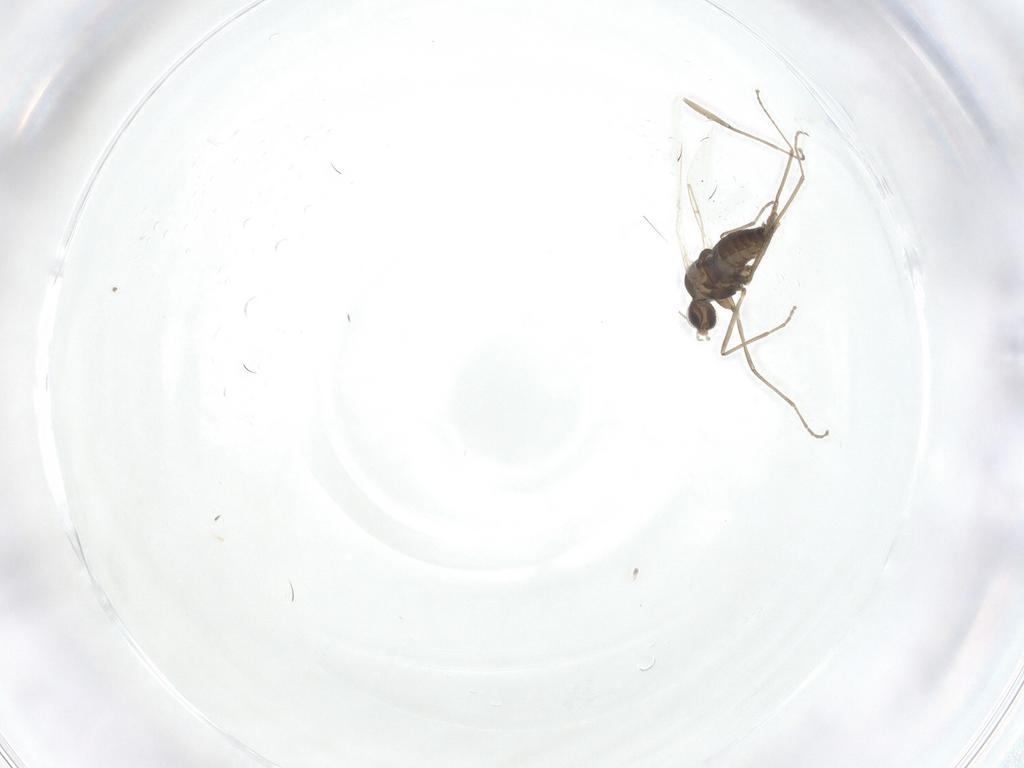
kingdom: Animalia
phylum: Arthropoda
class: Insecta
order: Diptera
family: Cecidomyiidae
